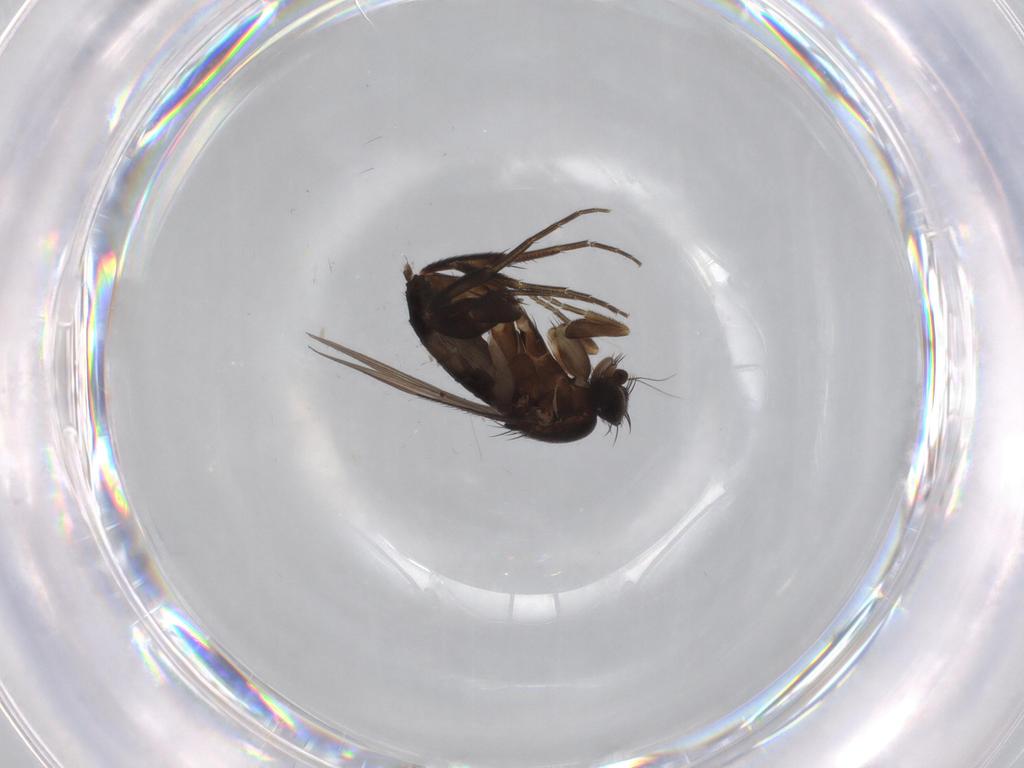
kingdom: Animalia
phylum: Arthropoda
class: Insecta
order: Diptera
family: Phoridae
